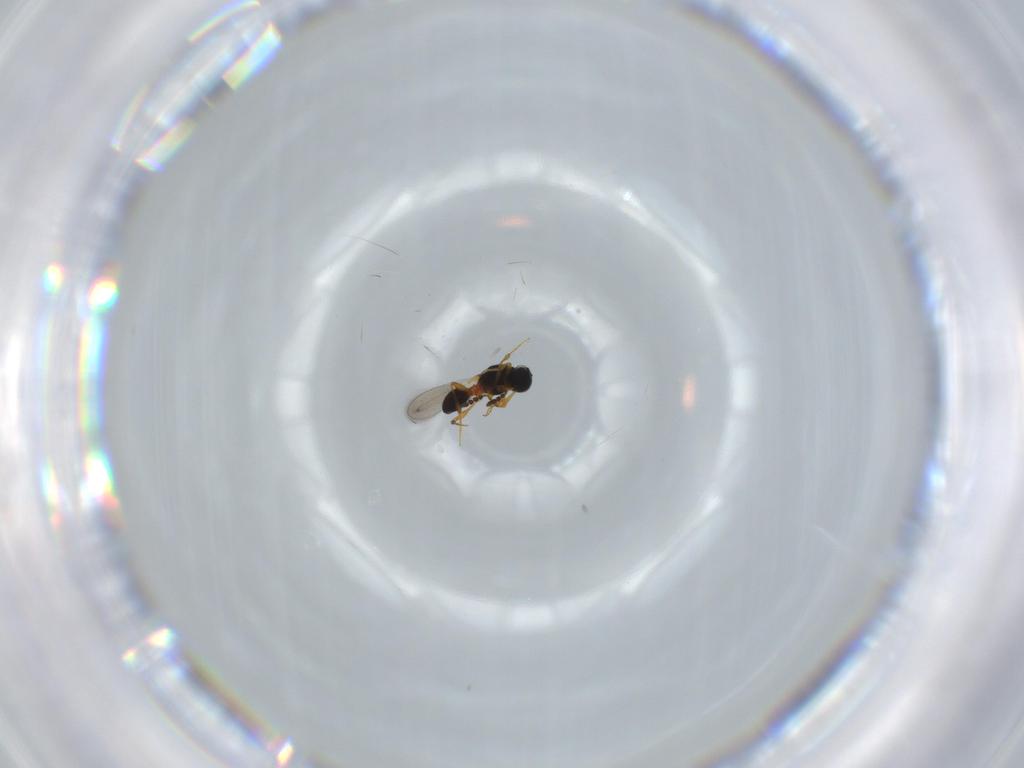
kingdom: Animalia
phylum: Arthropoda
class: Insecta
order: Hymenoptera
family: Platygastridae
